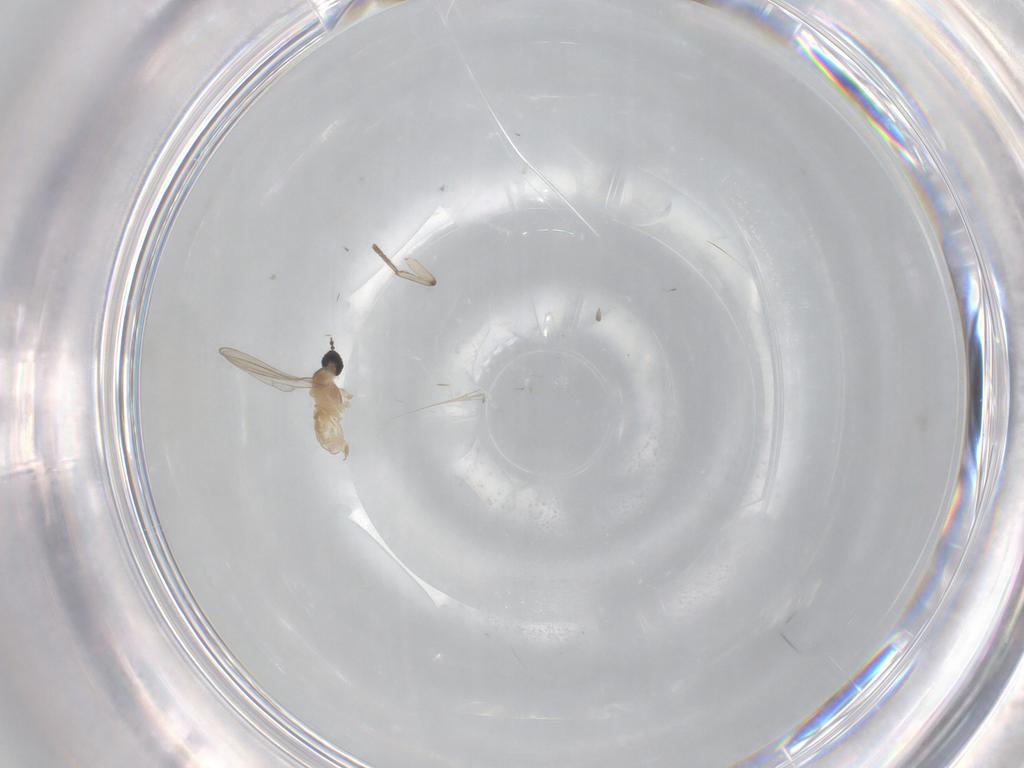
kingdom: Animalia
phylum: Arthropoda
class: Insecta
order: Diptera
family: Cecidomyiidae
